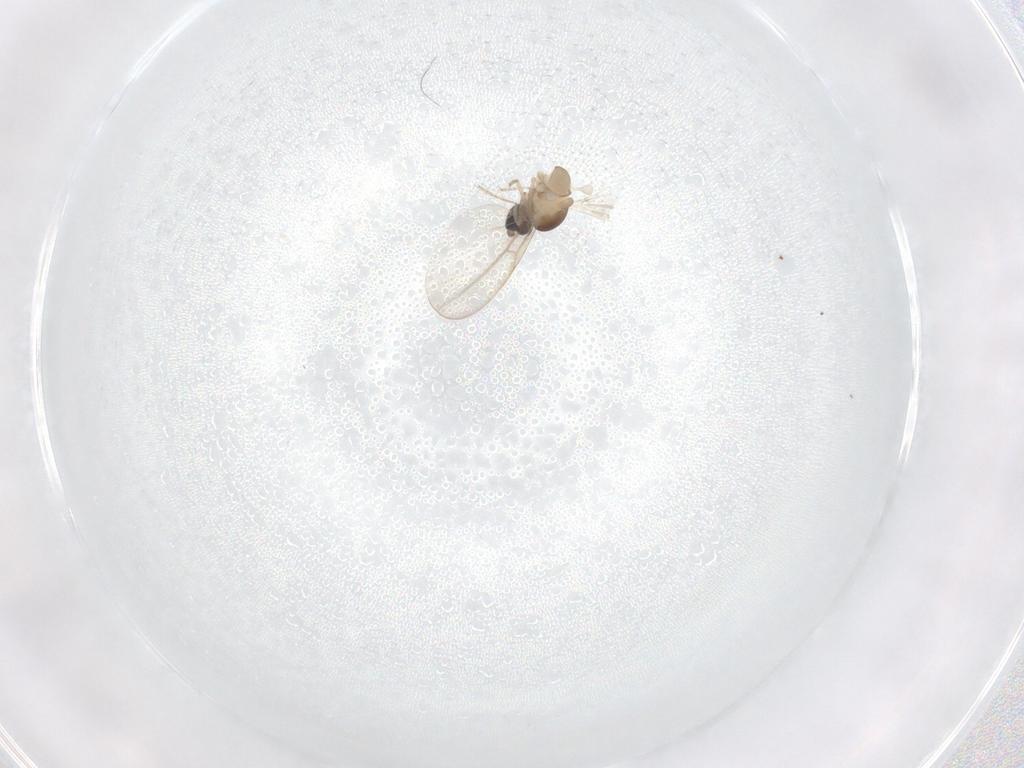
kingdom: Animalia
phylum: Arthropoda
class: Insecta
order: Diptera
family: Cecidomyiidae
